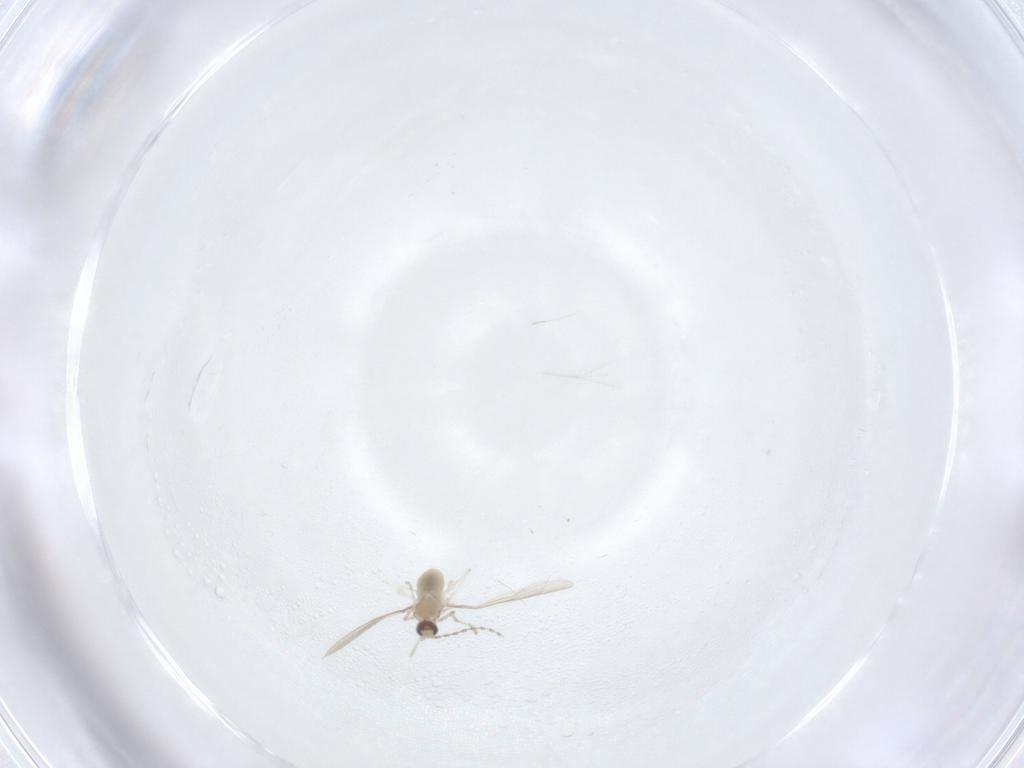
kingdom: Animalia
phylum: Arthropoda
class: Insecta
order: Diptera
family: Cecidomyiidae
